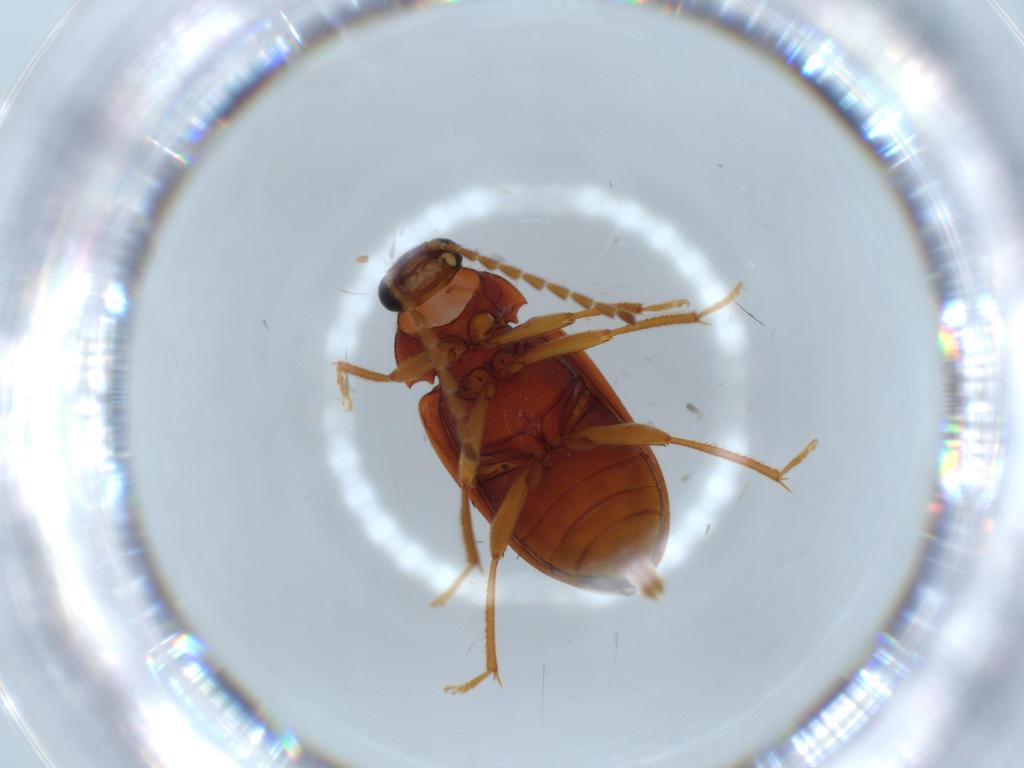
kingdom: Animalia
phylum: Arthropoda
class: Insecta
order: Coleoptera
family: Ptilodactylidae
